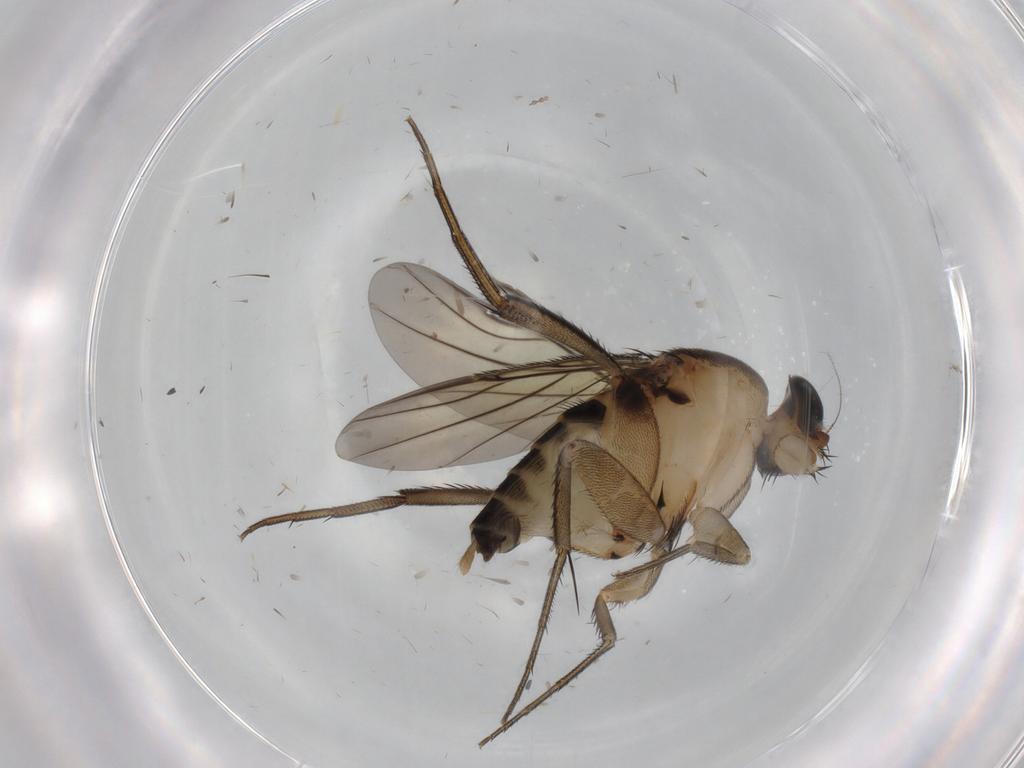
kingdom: Animalia
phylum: Arthropoda
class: Insecta
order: Diptera
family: Phoridae
